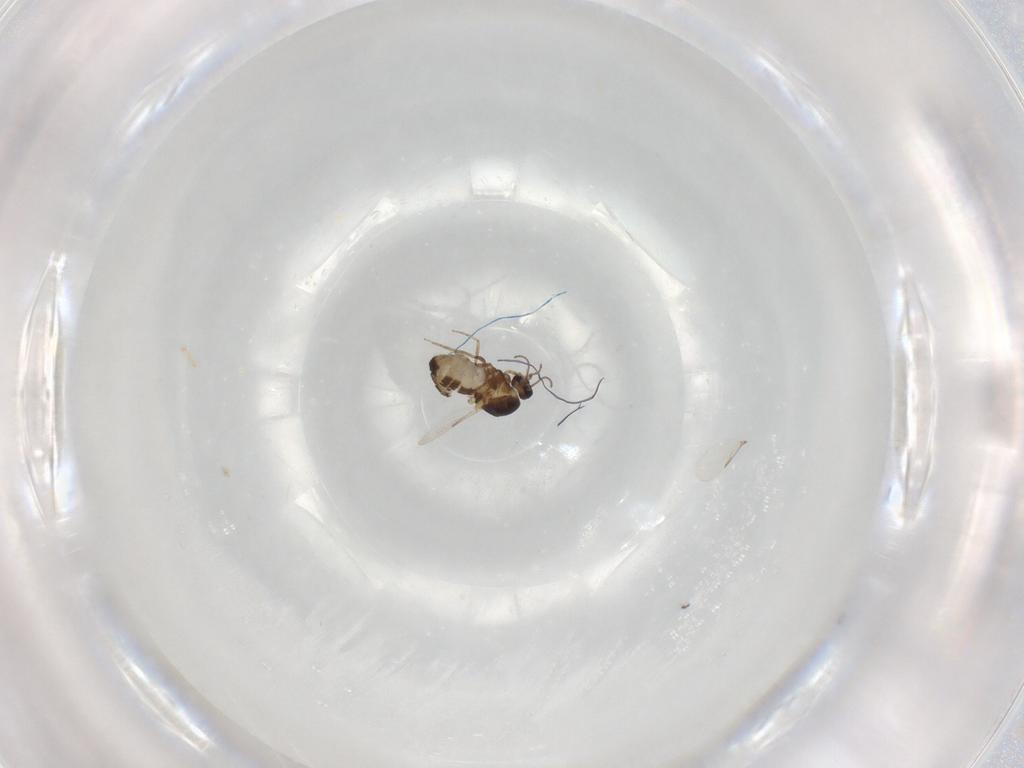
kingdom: Animalia
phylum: Arthropoda
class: Insecta
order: Diptera
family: Ceratopogonidae
